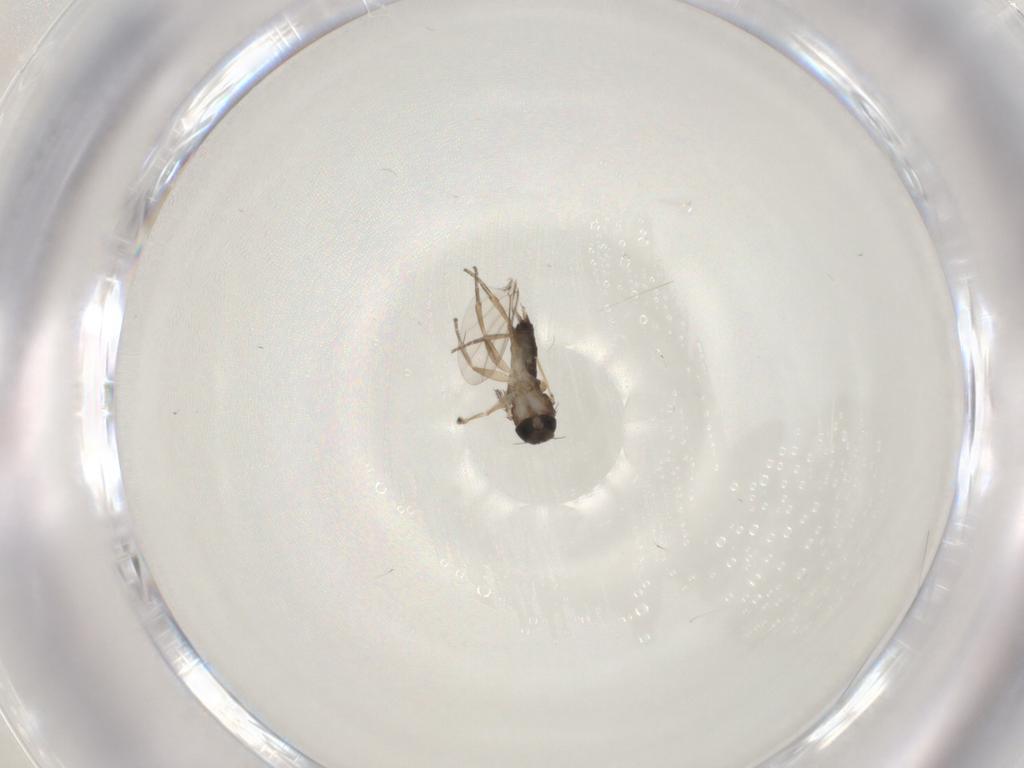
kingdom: Animalia
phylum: Arthropoda
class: Insecta
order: Diptera
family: Phoridae
